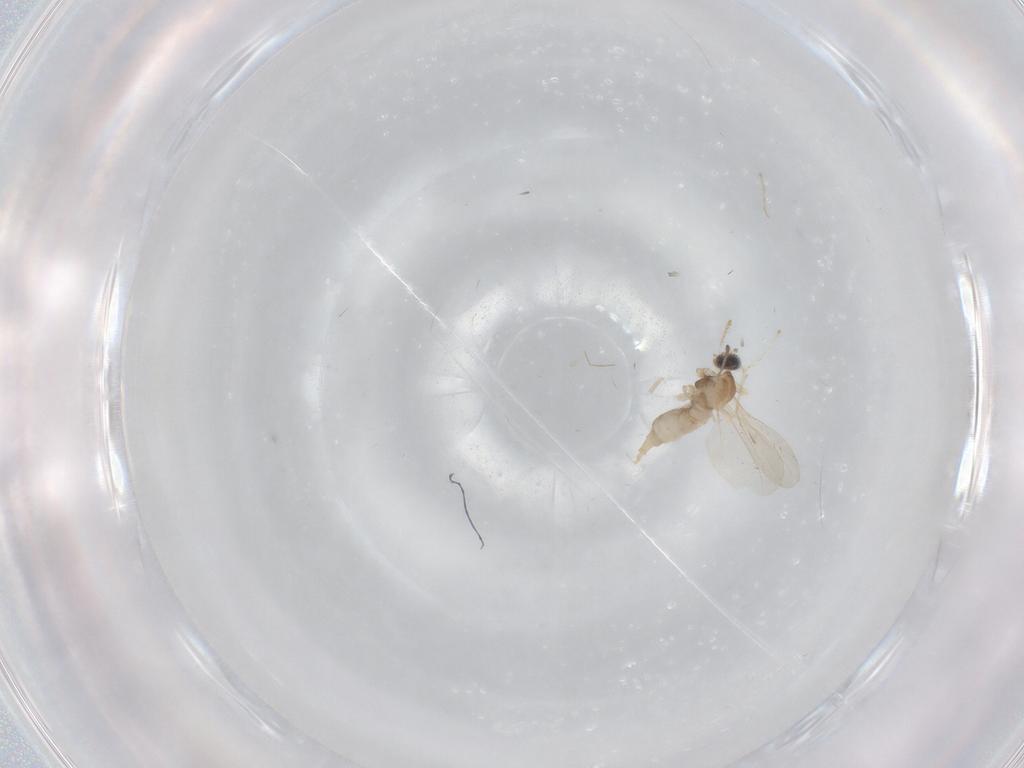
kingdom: Animalia
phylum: Arthropoda
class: Insecta
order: Diptera
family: Cecidomyiidae
